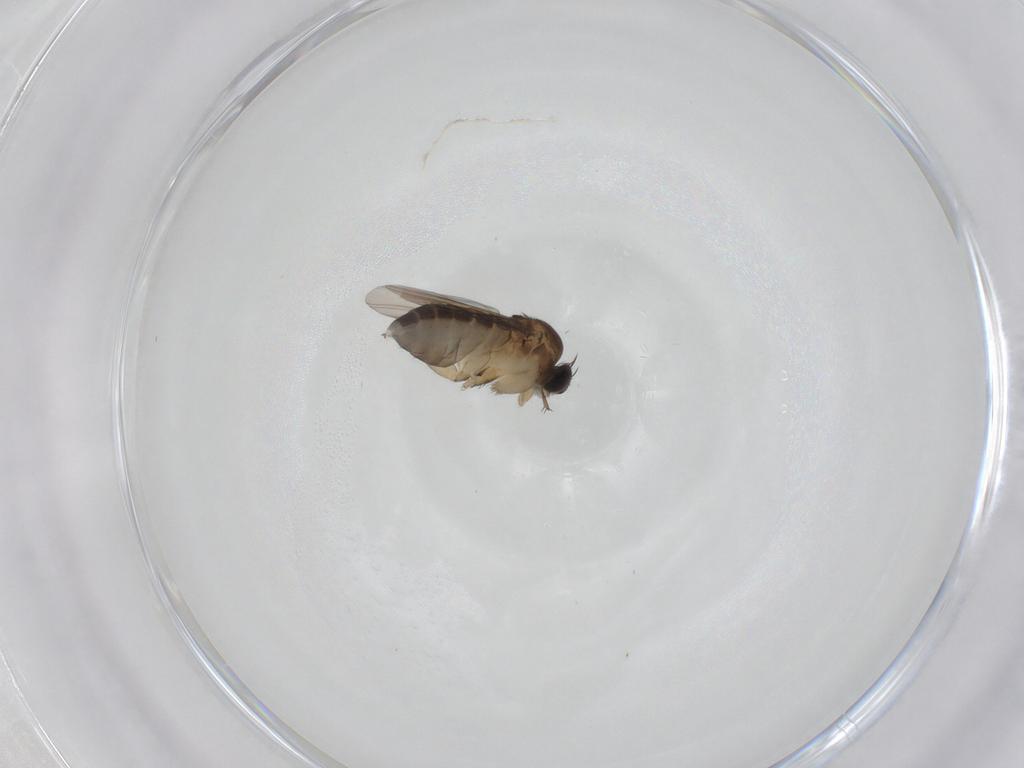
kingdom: Animalia
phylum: Arthropoda
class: Insecta
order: Diptera
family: Phoridae
